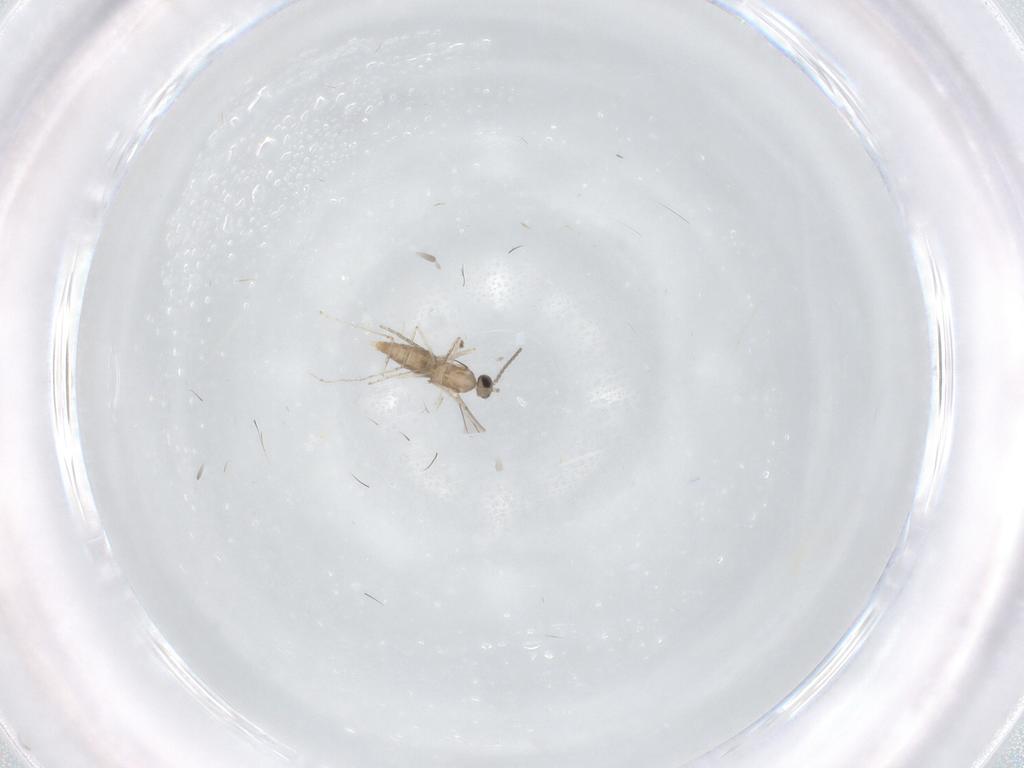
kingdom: Animalia
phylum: Arthropoda
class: Insecta
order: Diptera
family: Cecidomyiidae
